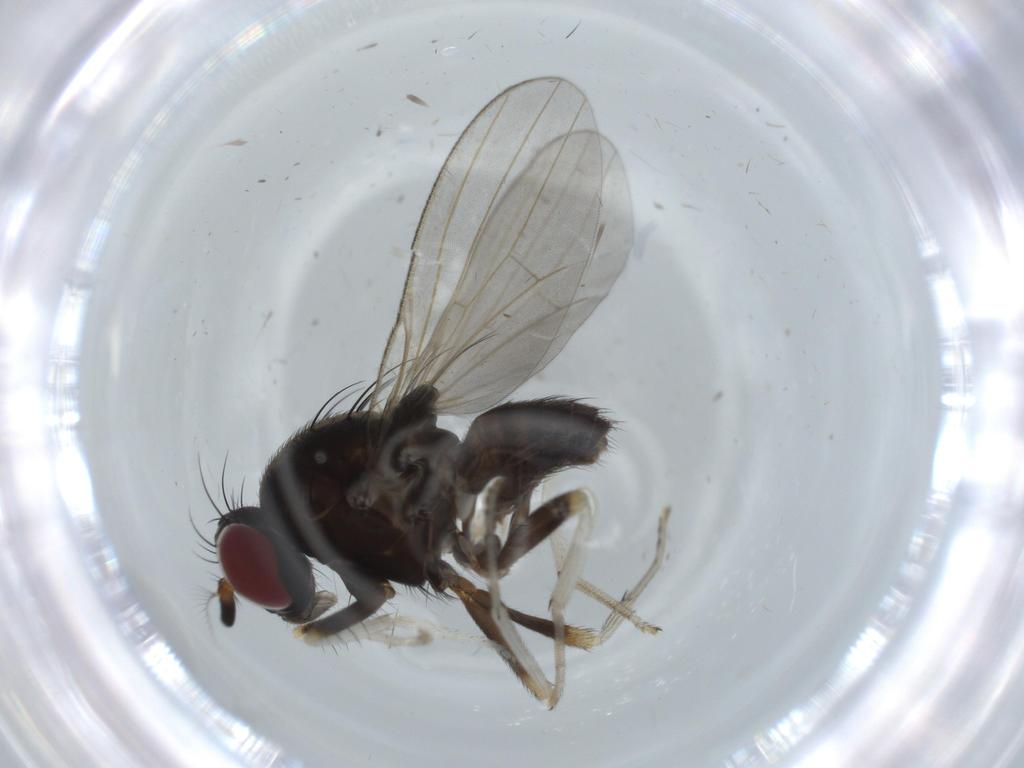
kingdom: Animalia
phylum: Arthropoda
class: Insecta
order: Diptera
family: Lauxaniidae
